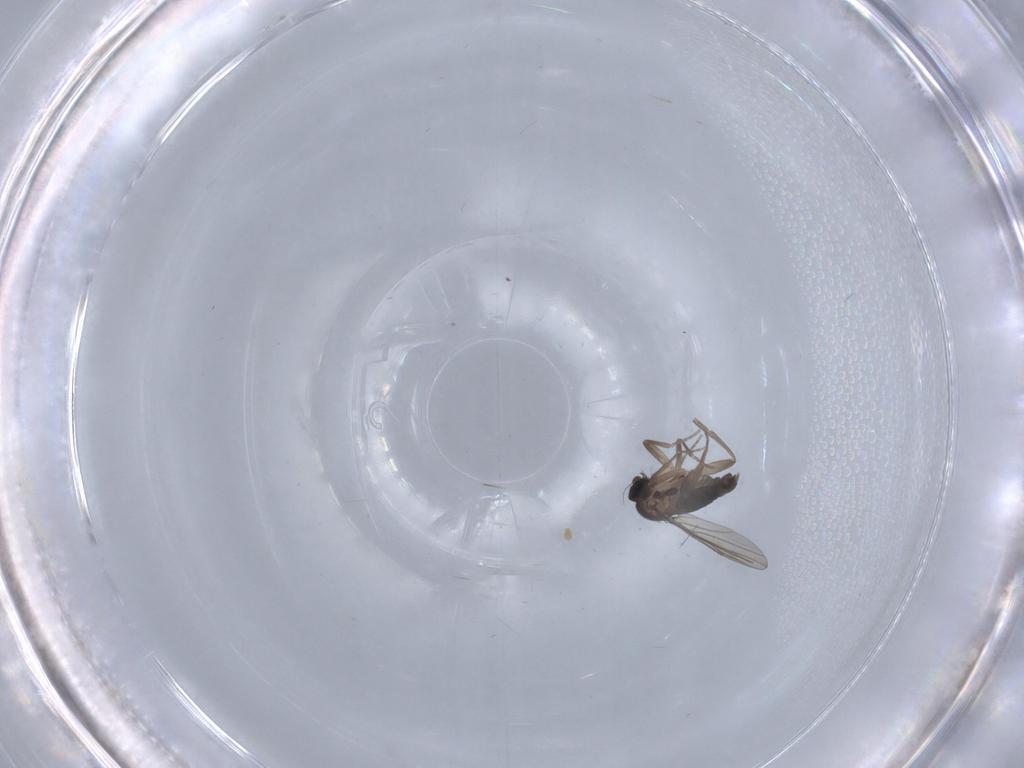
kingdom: Animalia
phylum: Arthropoda
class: Insecta
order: Diptera
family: Phoridae
